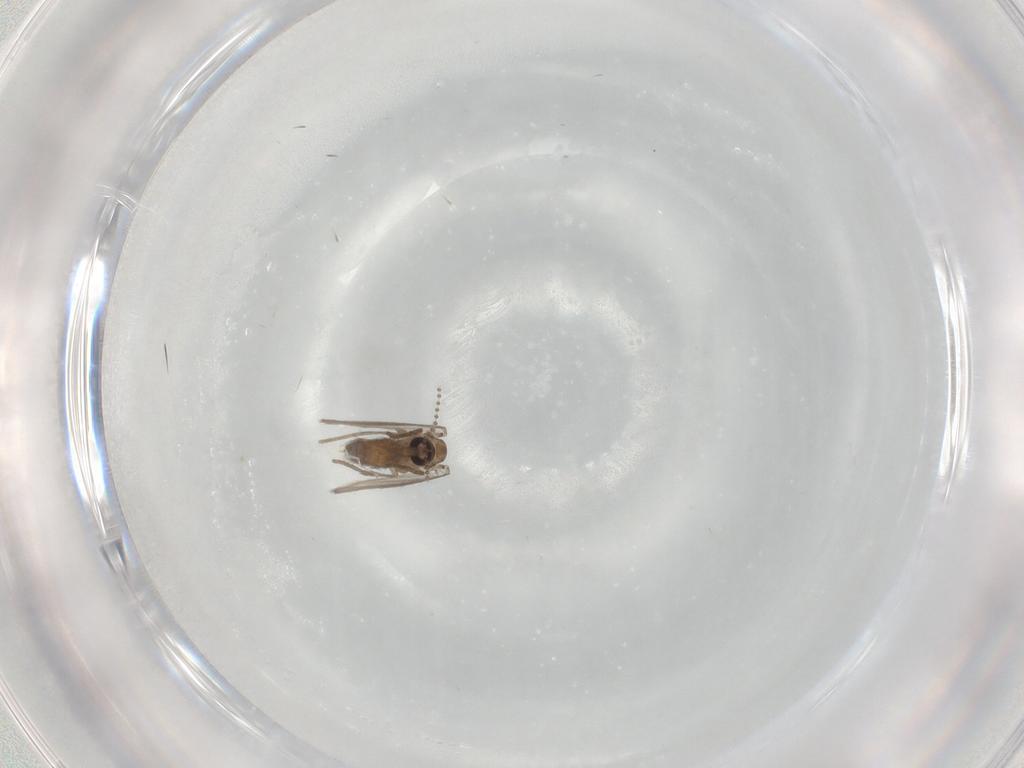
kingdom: Animalia
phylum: Arthropoda
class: Insecta
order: Diptera
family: Psychodidae
